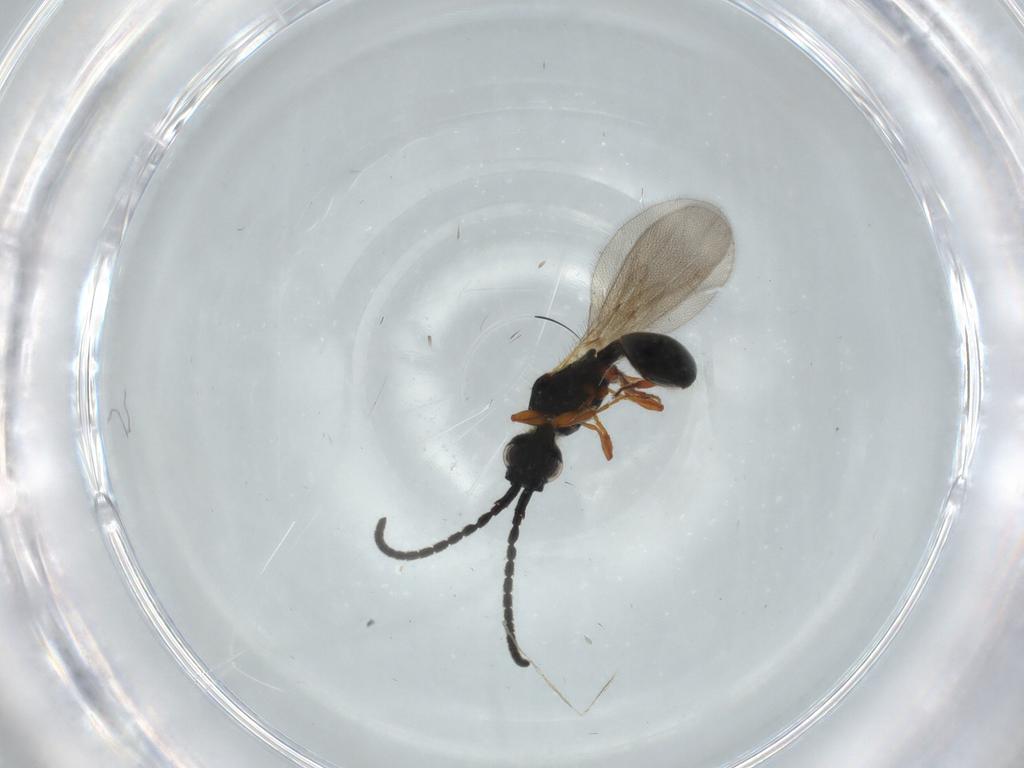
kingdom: Animalia
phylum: Arthropoda
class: Insecta
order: Hymenoptera
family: Diapriidae
